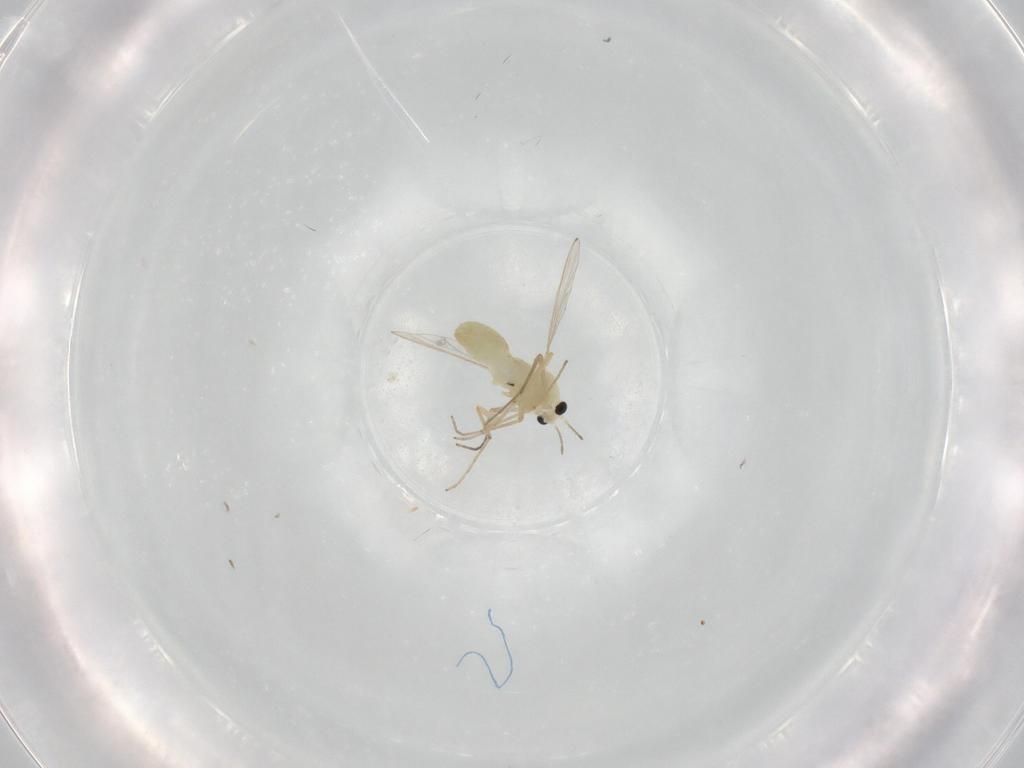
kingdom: Animalia
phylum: Arthropoda
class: Insecta
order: Diptera
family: Chironomidae
